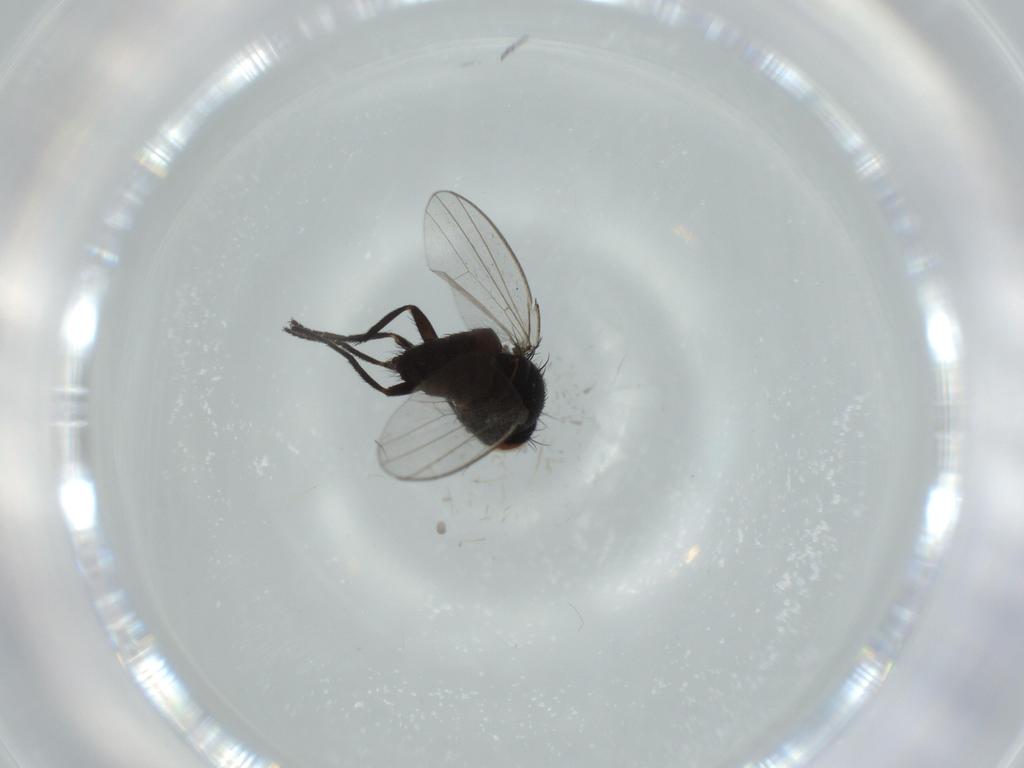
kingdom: Animalia
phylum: Arthropoda
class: Insecta
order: Diptera
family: Milichiidae
